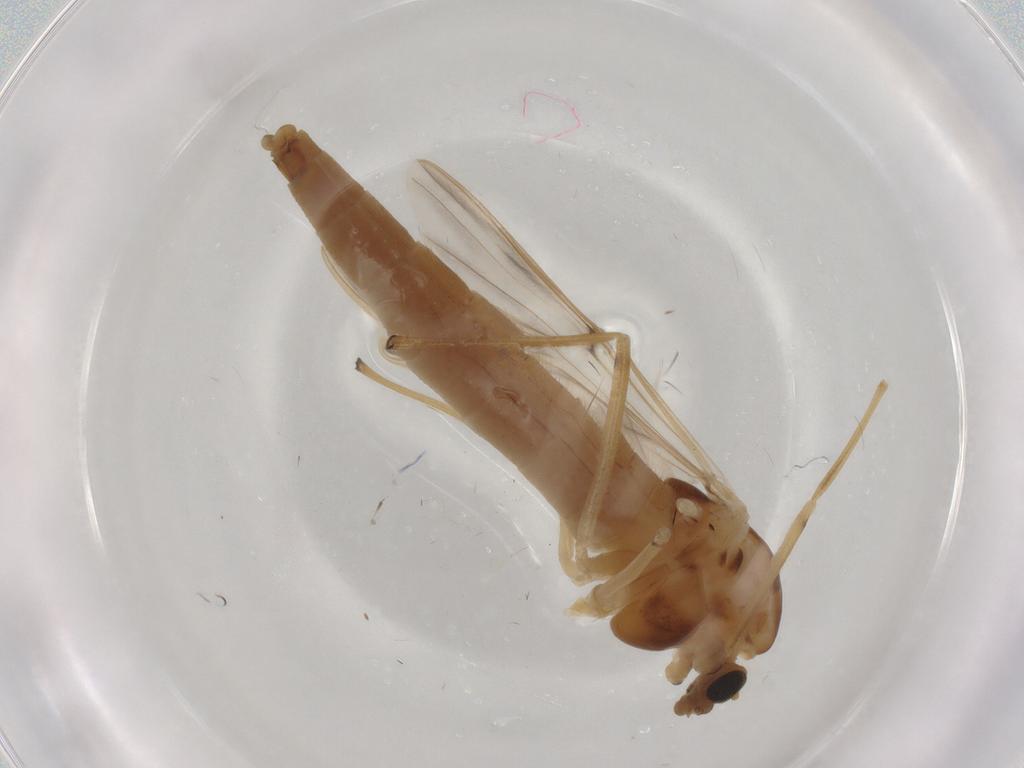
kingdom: Animalia
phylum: Arthropoda
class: Insecta
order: Diptera
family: Chironomidae
